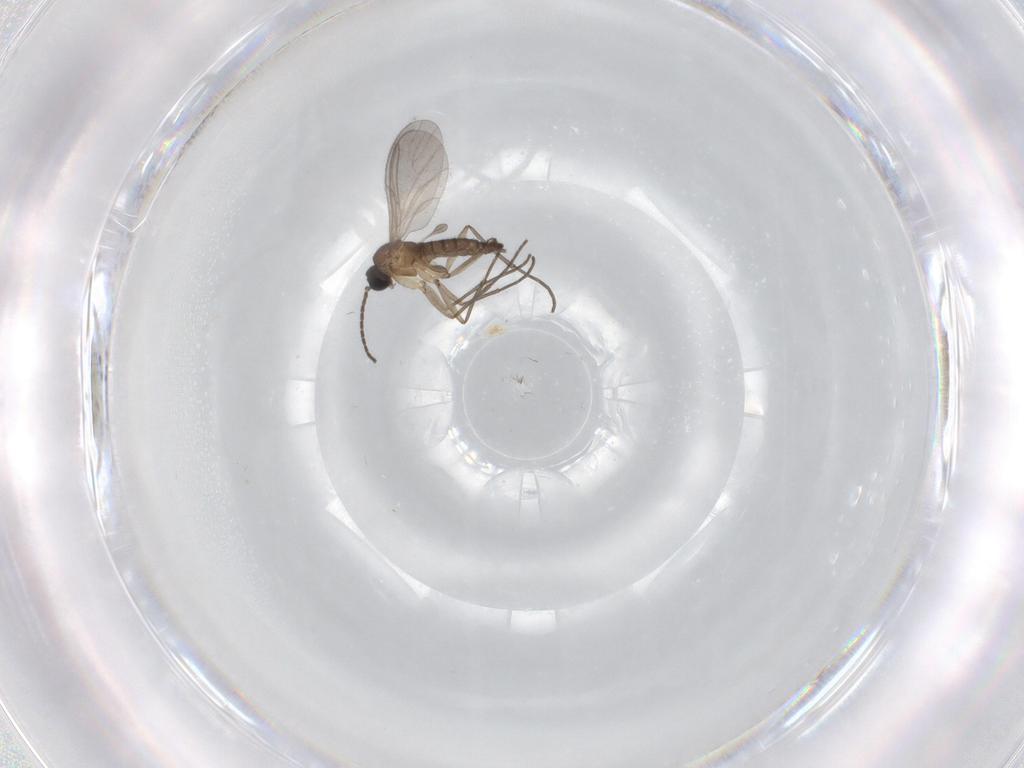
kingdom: Animalia
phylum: Arthropoda
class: Insecta
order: Diptera
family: Sciaridae
